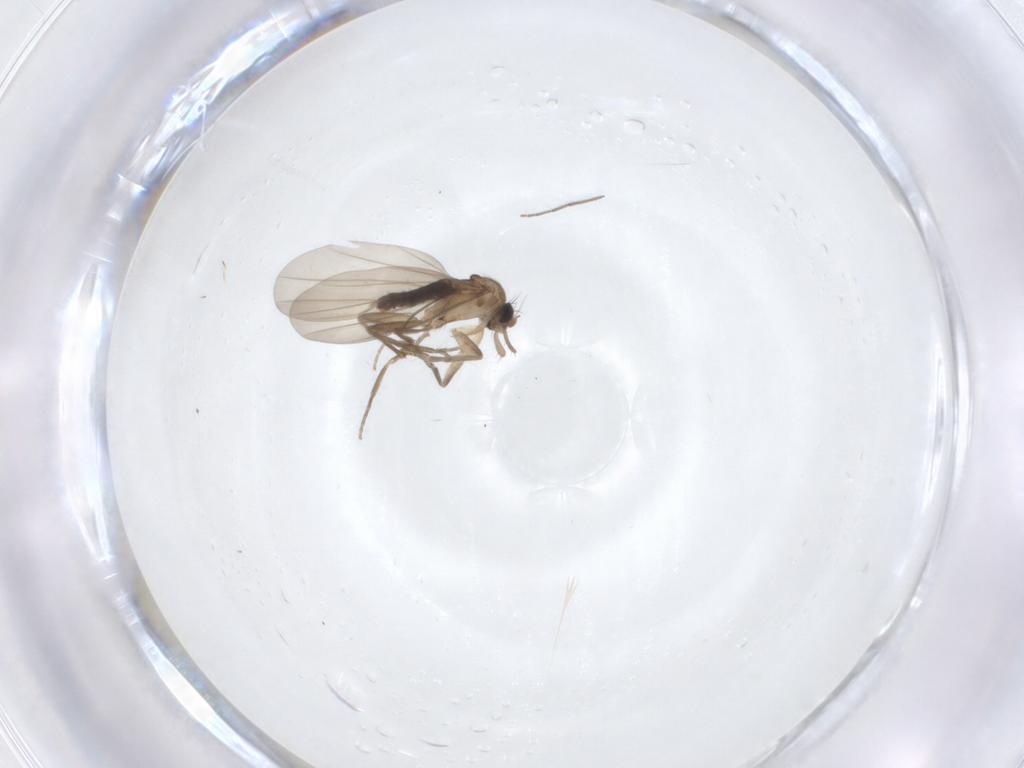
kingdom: Animalia
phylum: Arthropoda
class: Insecta
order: Diptera
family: Chironomidae
